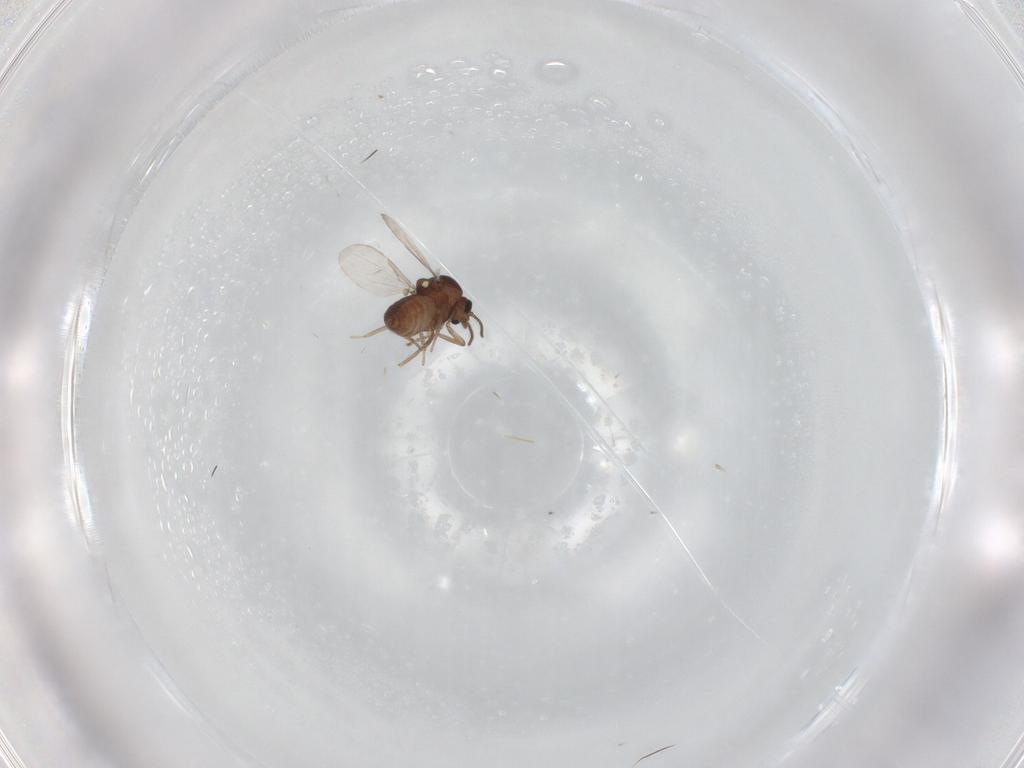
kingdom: Animalia
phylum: Arthropoda
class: Insecta
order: Diptera
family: Ceratopogonidae
